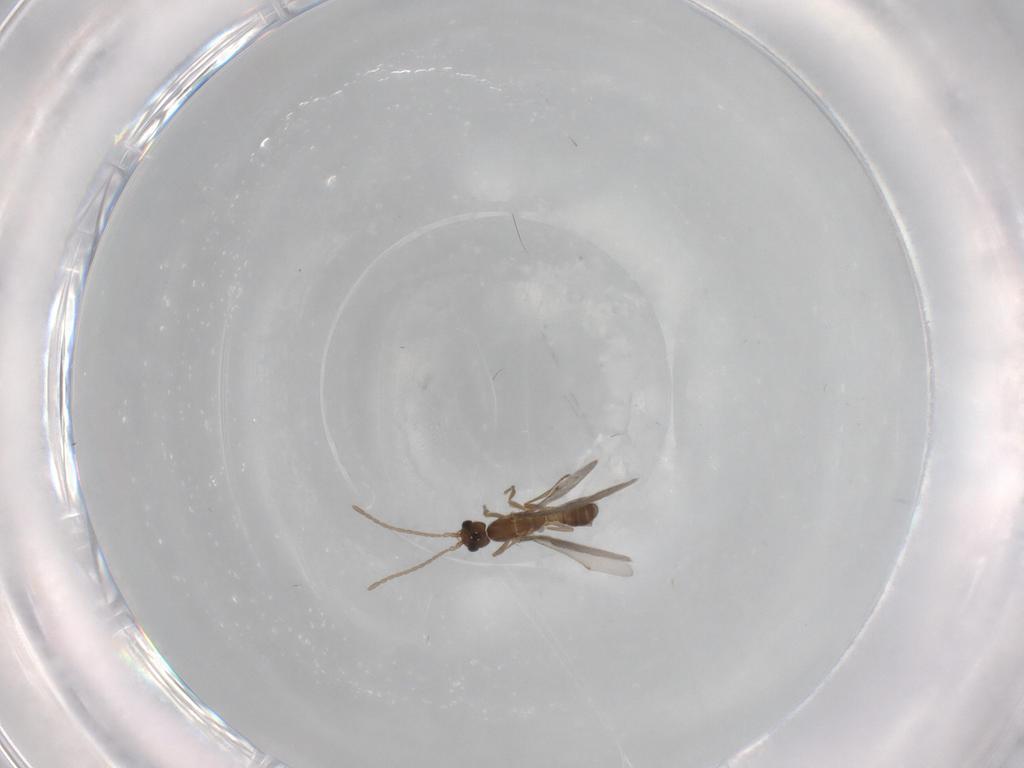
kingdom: Animalia
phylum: Arthropoda
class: Insecta
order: Hymenoptera
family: Formicidae
